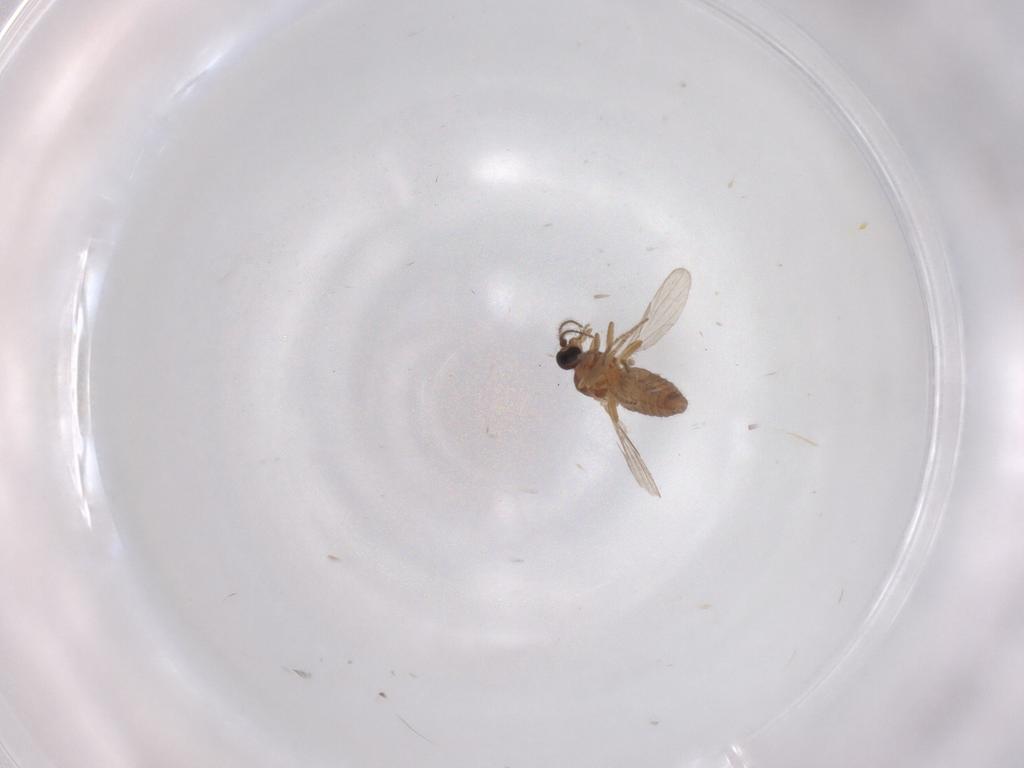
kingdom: Animalia
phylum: Arthropoda
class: Insecta
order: Diptera
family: Ceratopogonidae
